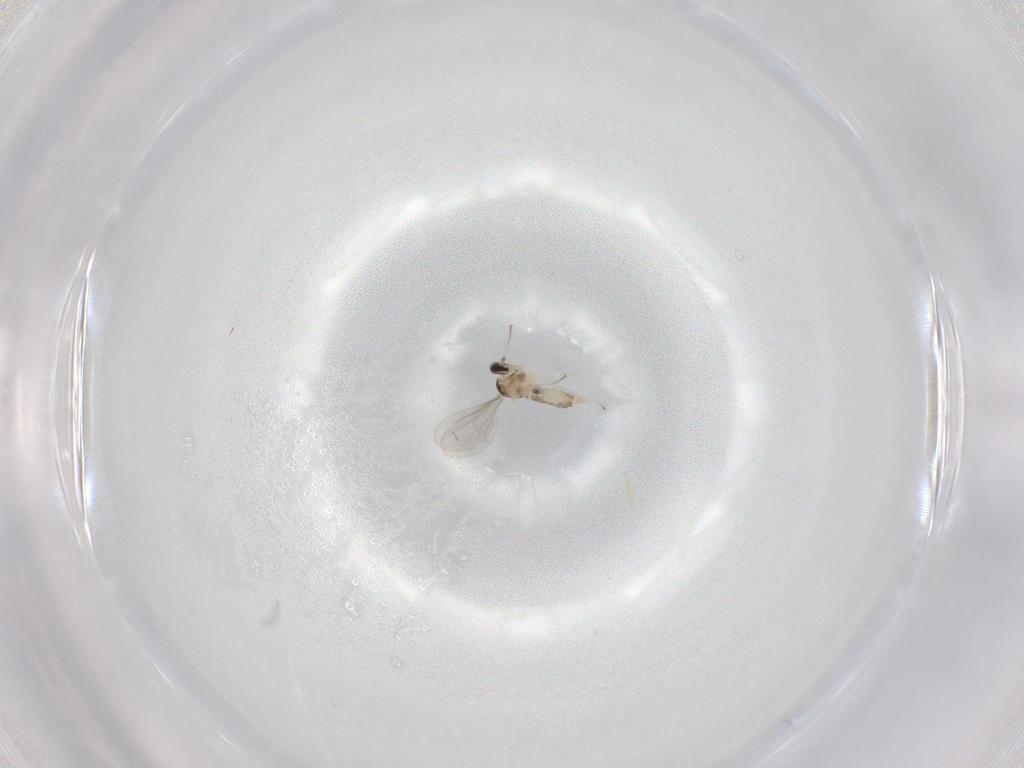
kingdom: Animalia
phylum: Arthropoda
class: Insecta
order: Diptera
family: Cecidomyiidae
